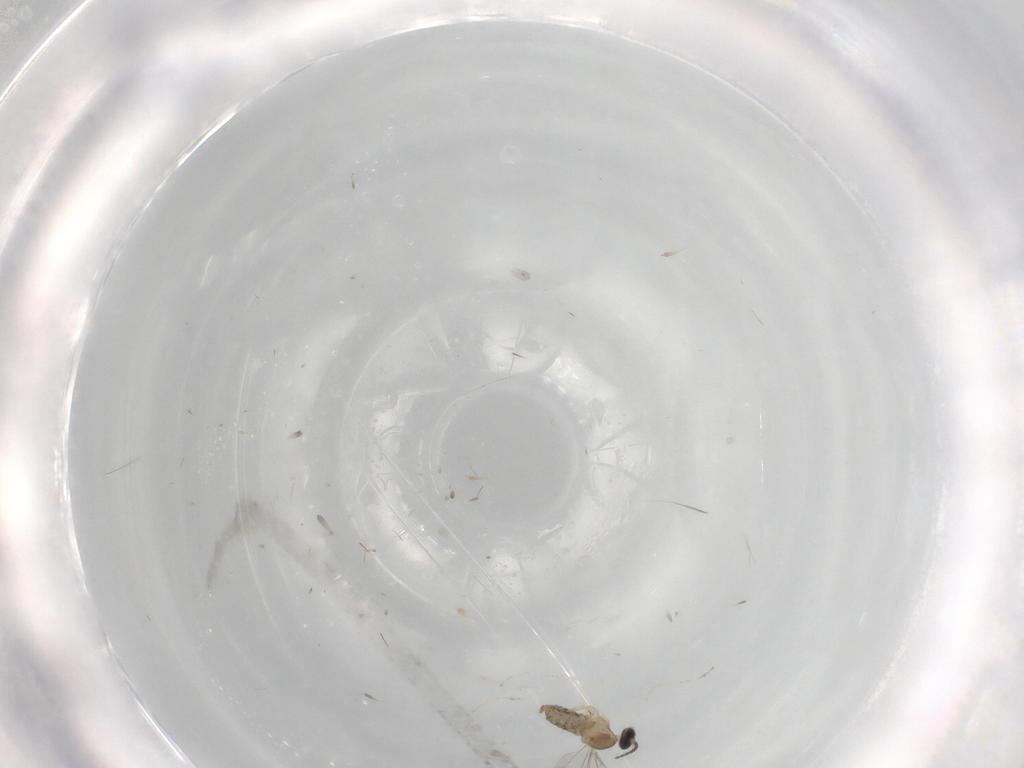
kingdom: Animalia
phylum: Arthropoda
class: Insecta
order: Diptera
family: Cecidomyiidae
